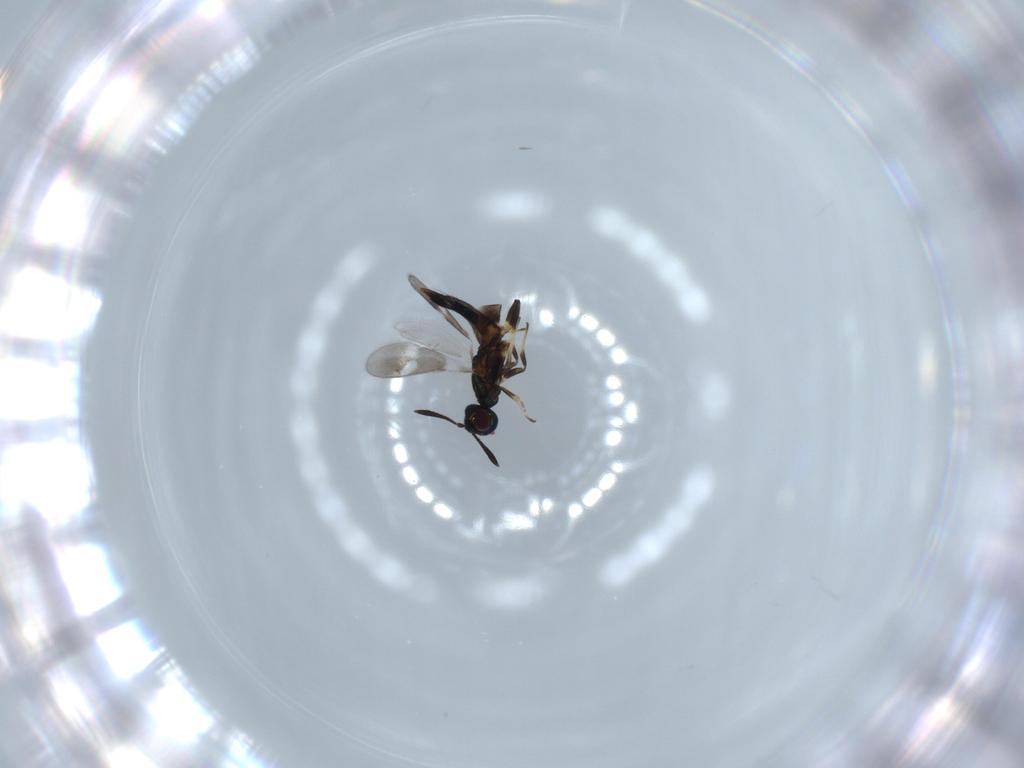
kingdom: Animalia
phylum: Arthropoda
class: Insecta
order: Hymenoptera
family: Eupelmidae
